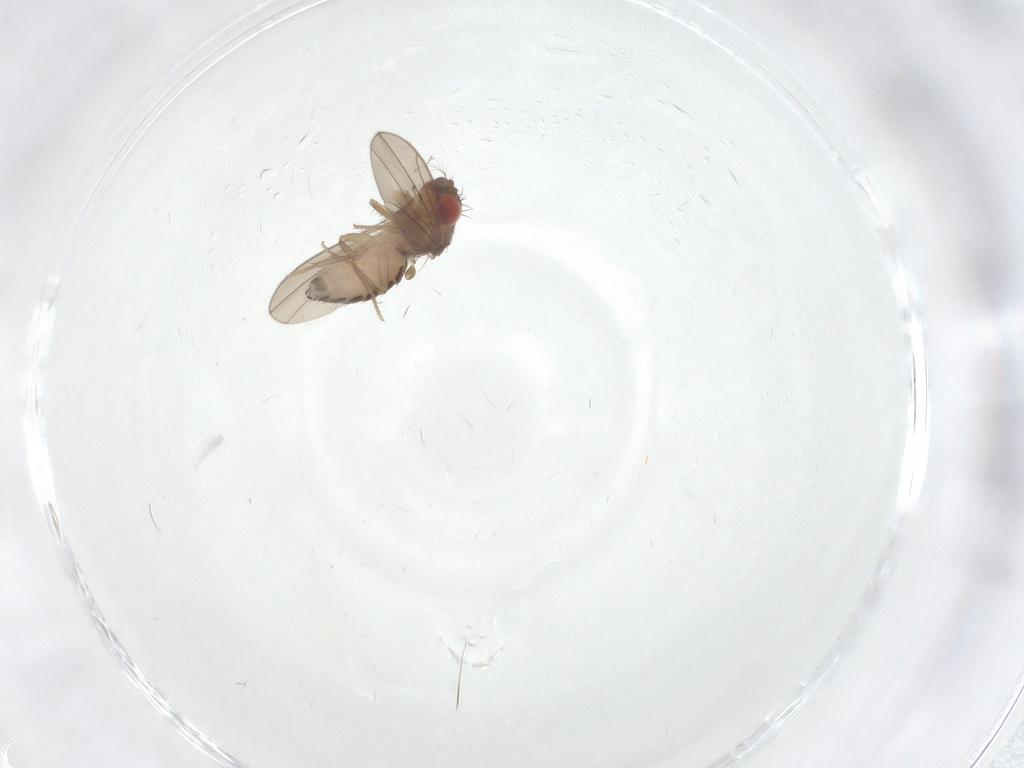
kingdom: Animalia
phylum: Arthropoda
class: Insecta
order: Diptera
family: Drosophilidae
